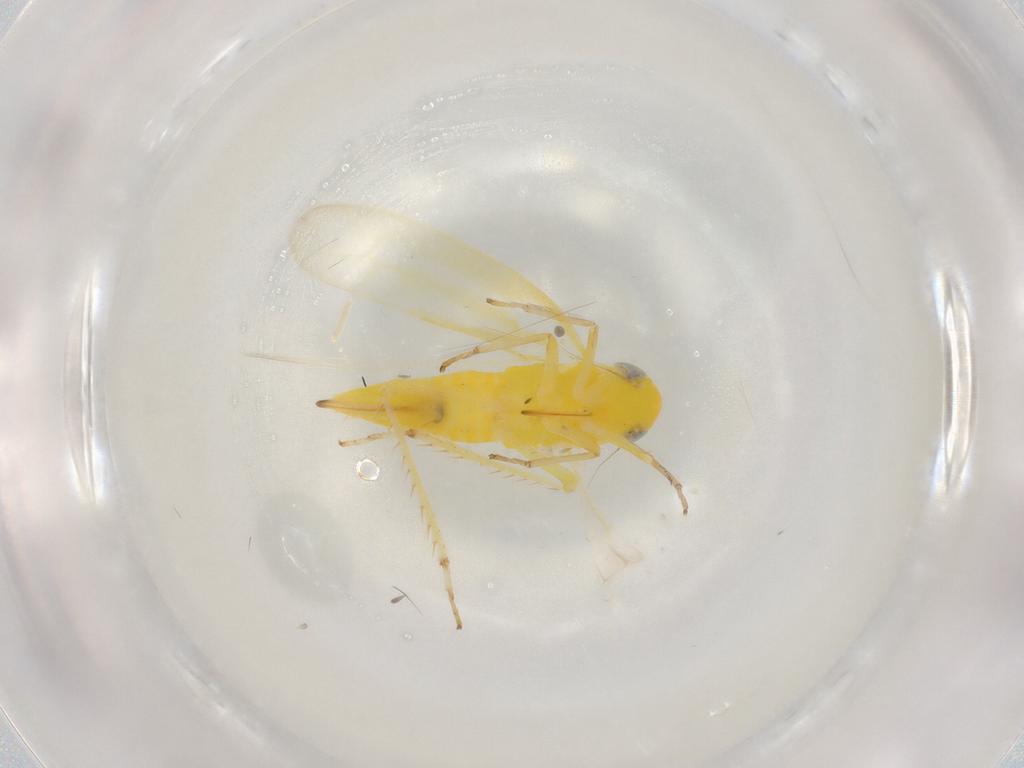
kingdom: Animalia
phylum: Arthropoda
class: Insecta
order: Hemiptera
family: Cicadellidae
